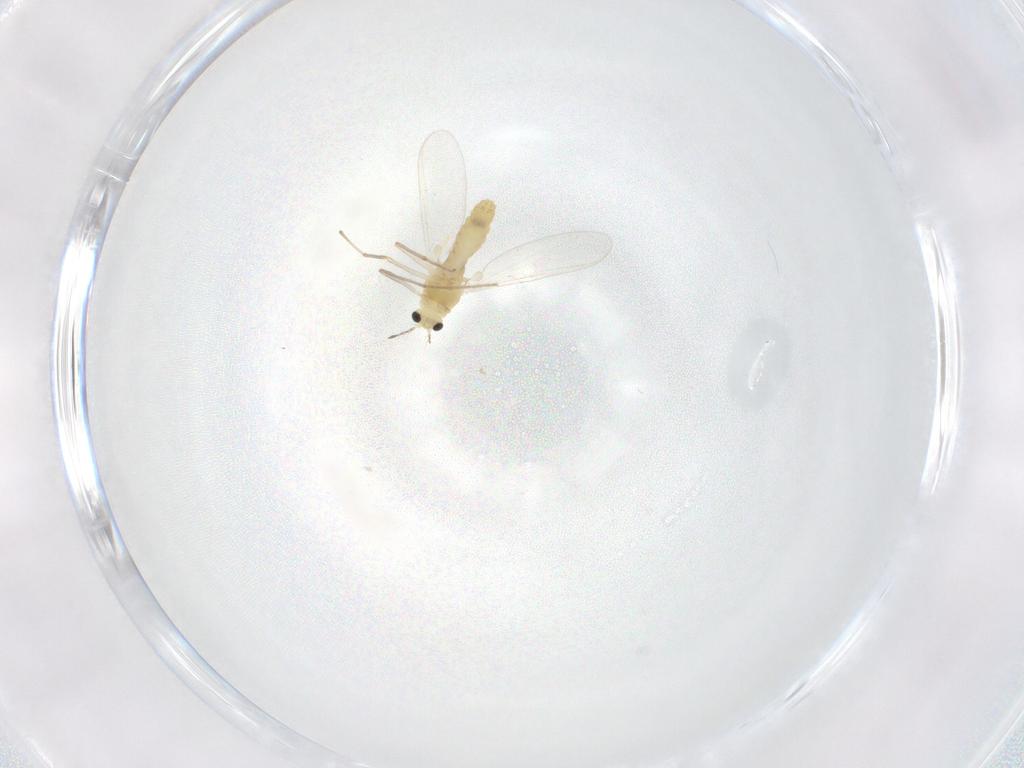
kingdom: Animalia
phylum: Arthropoda
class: Insecta
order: Diptera
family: Chironomidae
